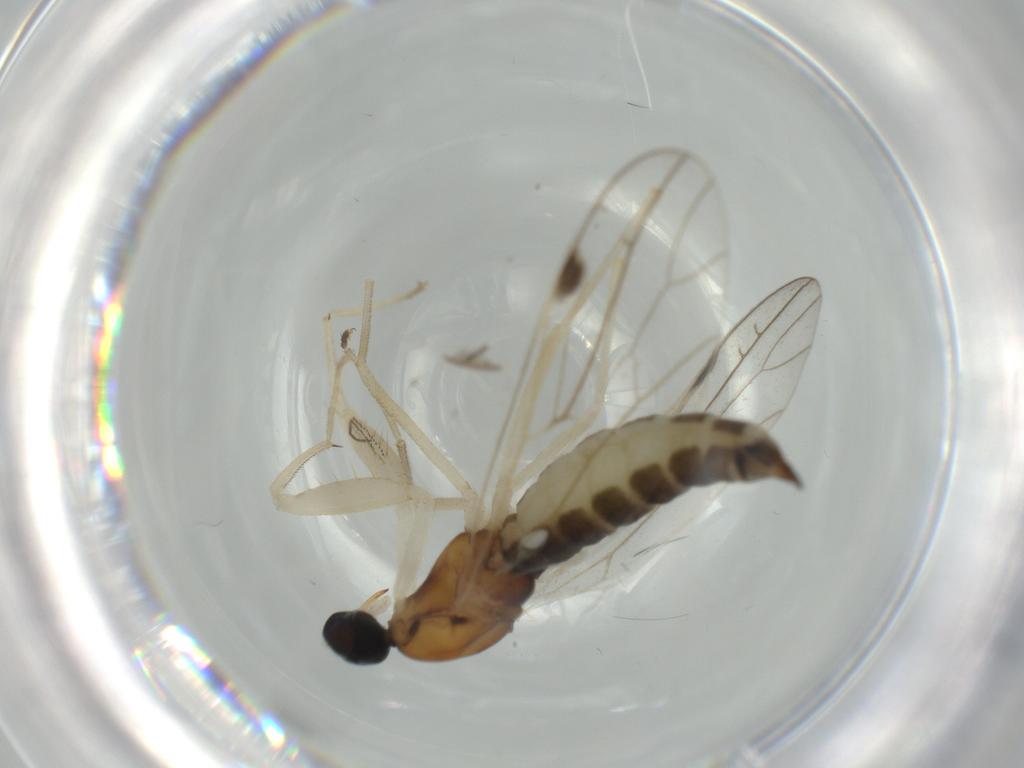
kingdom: Animalia
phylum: Arthropoda
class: Insecta
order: Diptera
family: Empididae
